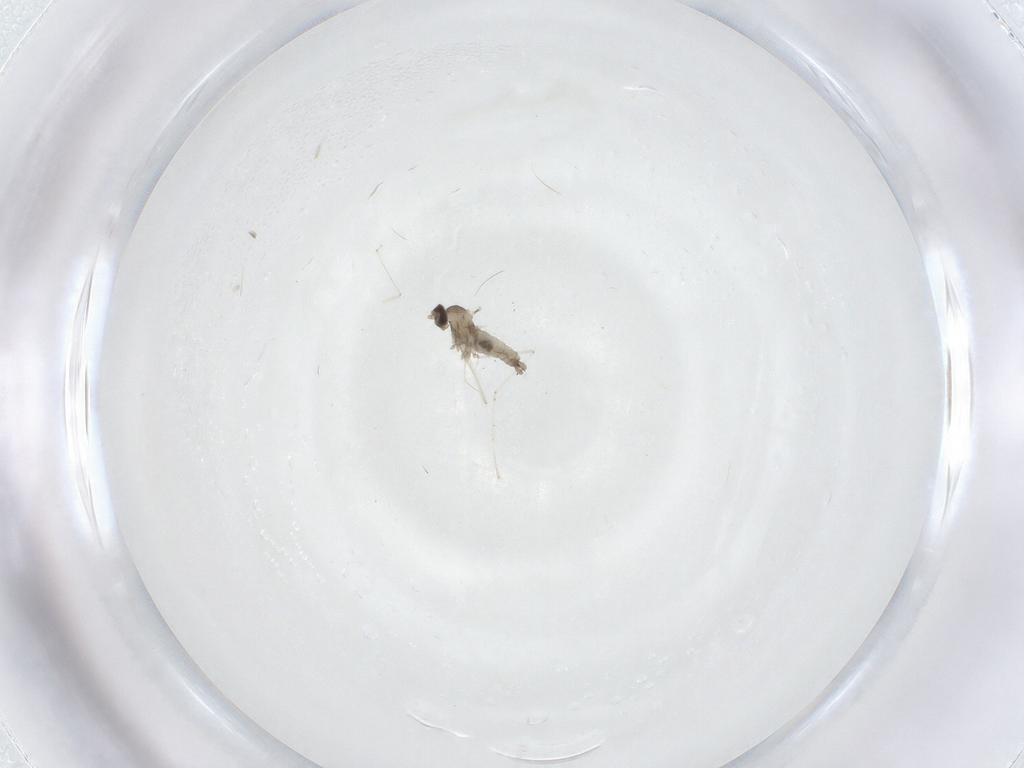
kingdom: Animalia
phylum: Arthropoda
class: Insecta
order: Diptera
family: Cecidomyiidae
